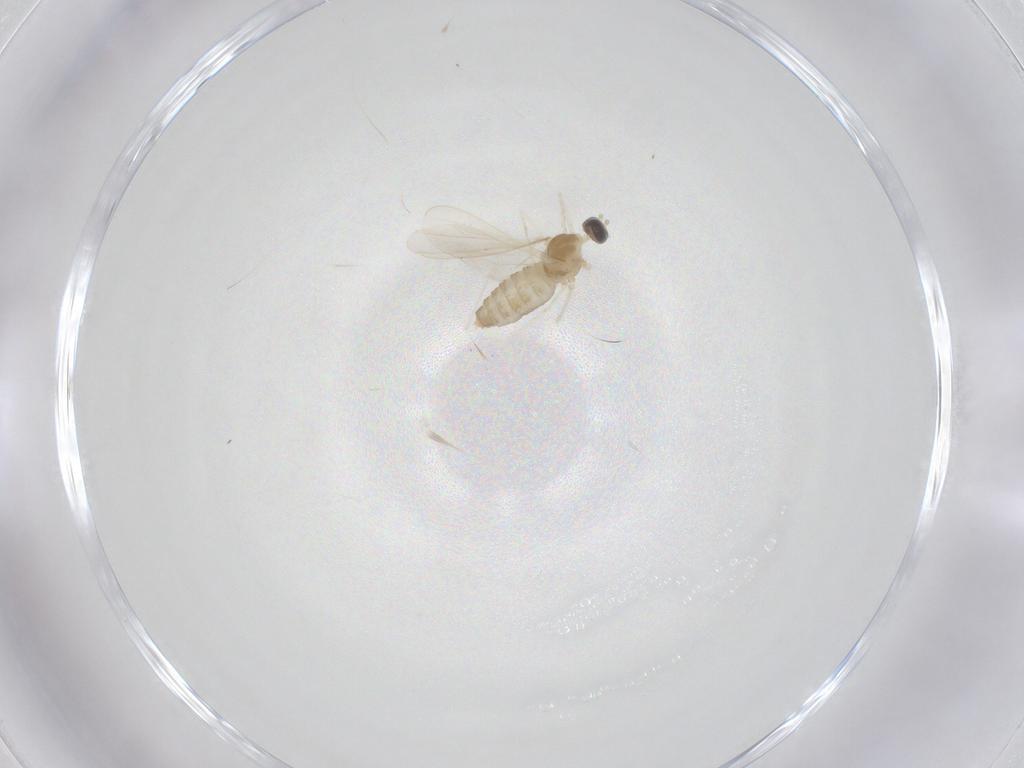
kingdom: Animalia
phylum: Arthropoda
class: Insecta
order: Diptera
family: Cecidomyiidae
